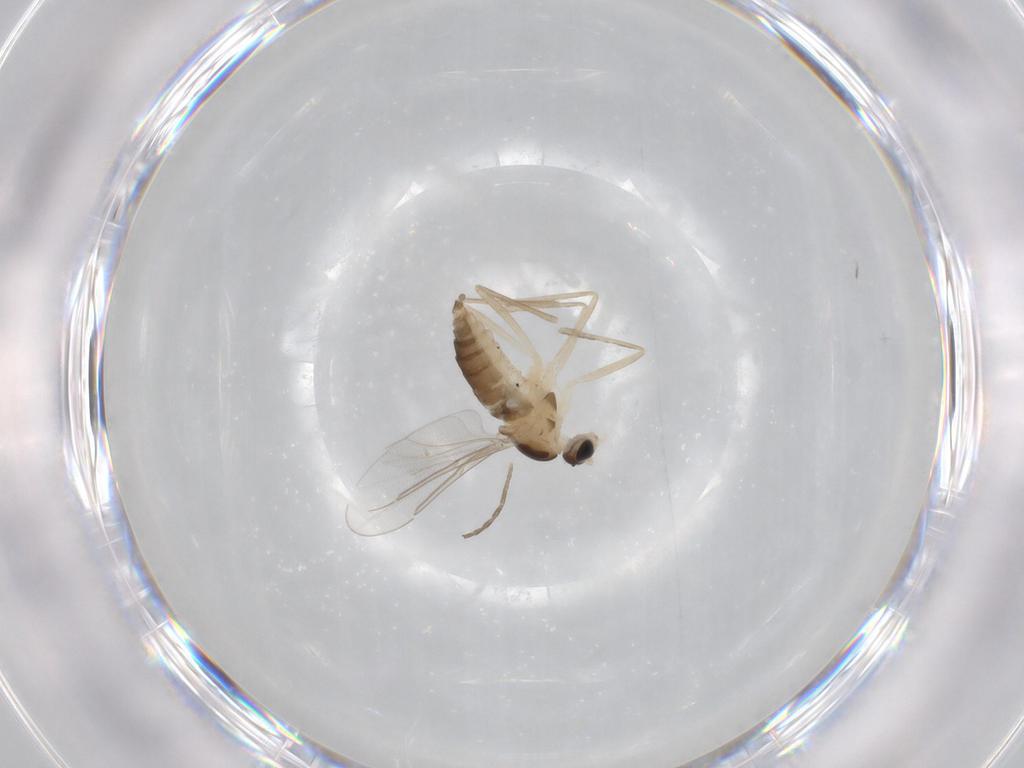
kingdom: Animalia
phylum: Arthropoda
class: Insecta
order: Diptera
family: Cecidomyiidae
